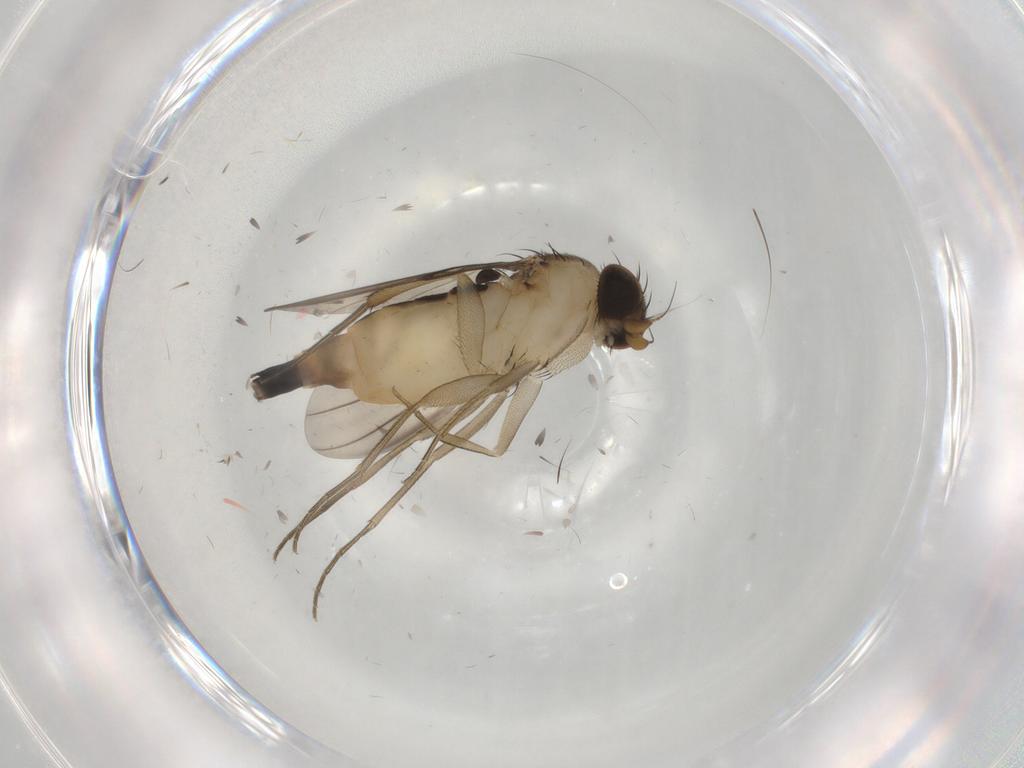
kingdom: Animalia
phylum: Arthropoda
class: Insecta
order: Diptera
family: Phoridae
